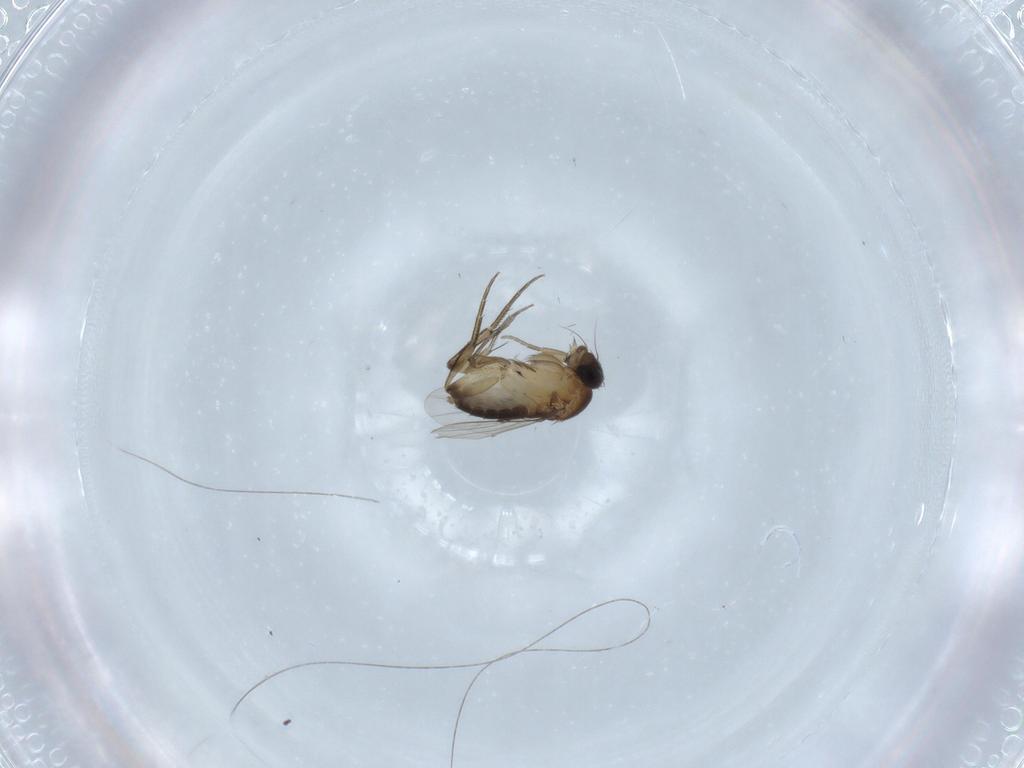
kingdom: Animalia
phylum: Arthropoda
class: Insecta
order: Diptera
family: Phoridae
